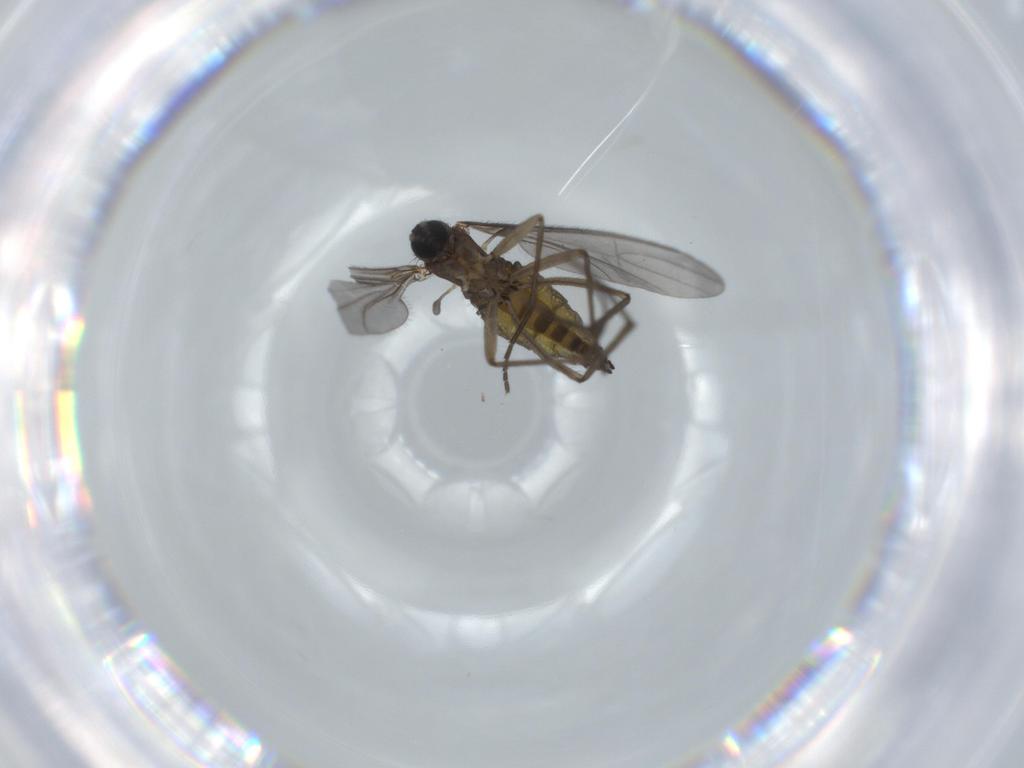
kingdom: Animalia
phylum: Arthropoda
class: Insecta
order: Diptera
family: Sciaridae
